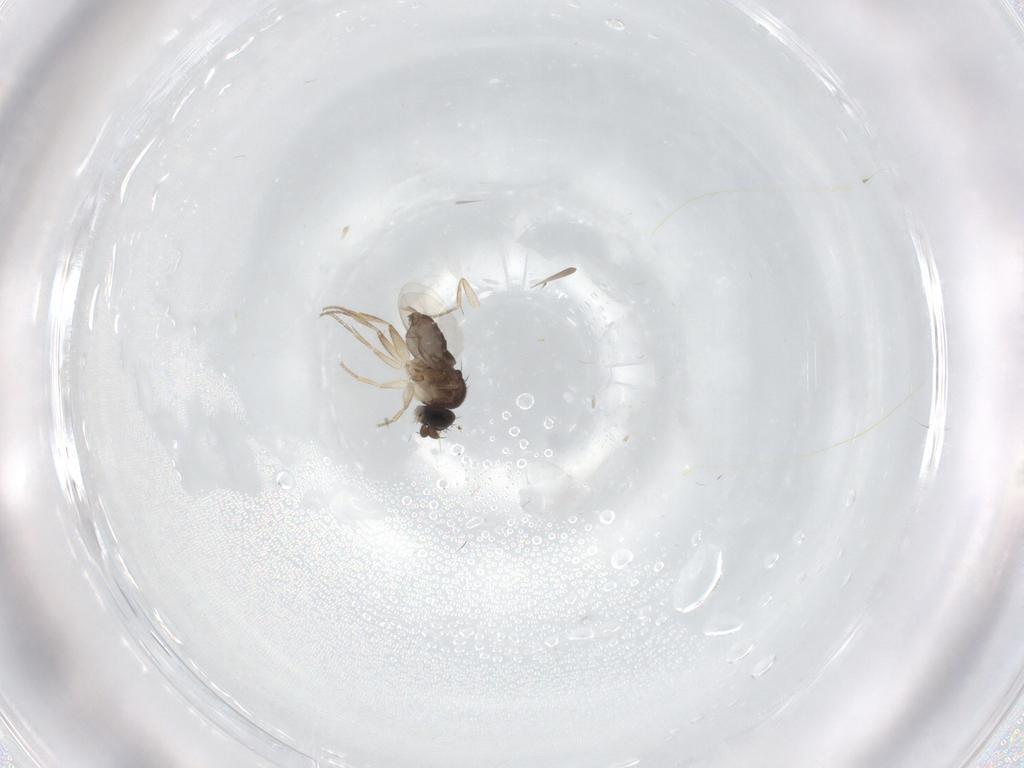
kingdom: Animalia
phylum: Arthropoda
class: Insecta
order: Diptera
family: Phoridae
